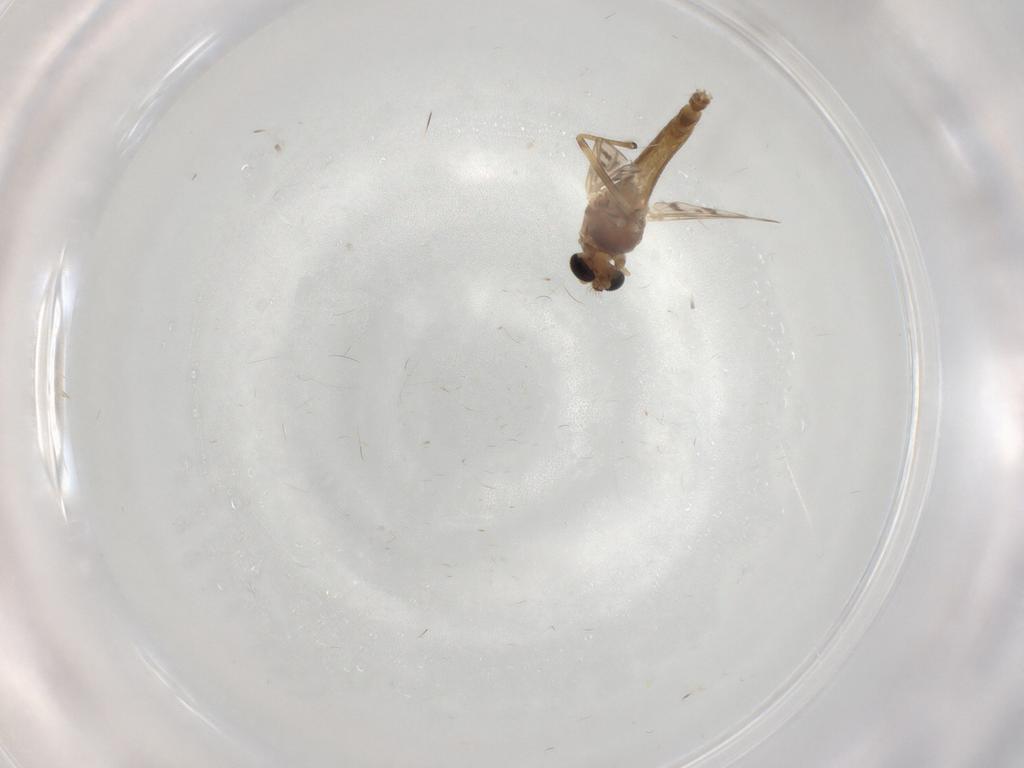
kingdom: Animalia
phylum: Arthropoda
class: Insecta
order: Diptera
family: Chironomidae
